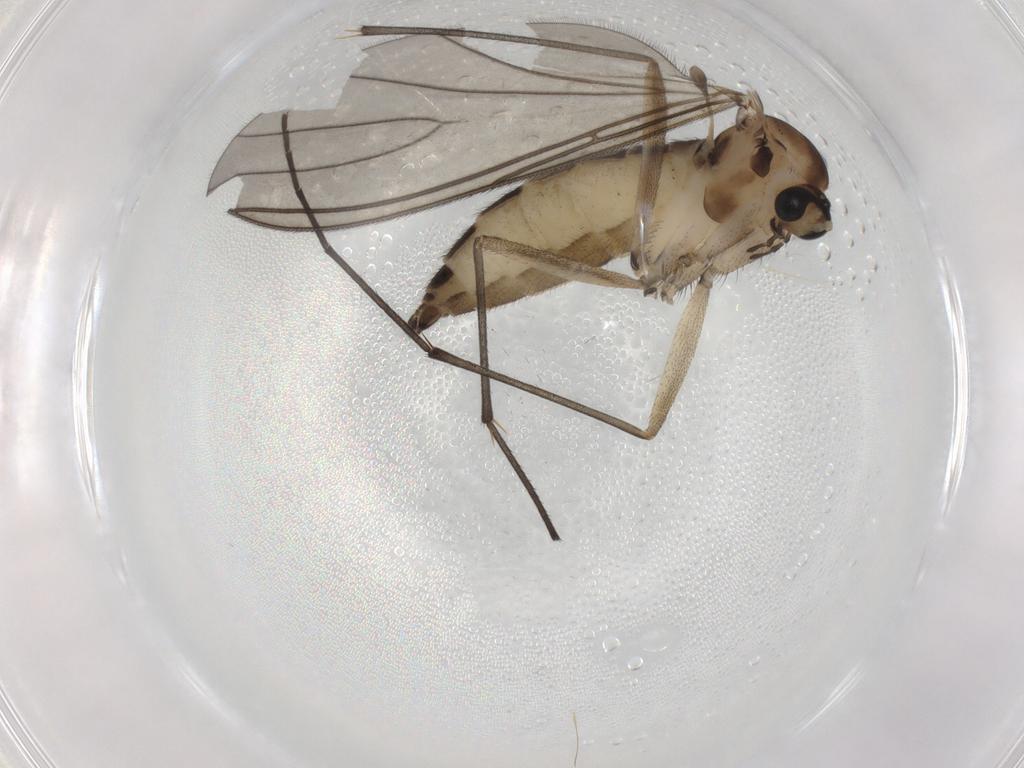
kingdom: Animalia
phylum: Arthropoda
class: Insecta
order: Diptera
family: Sciaridae
